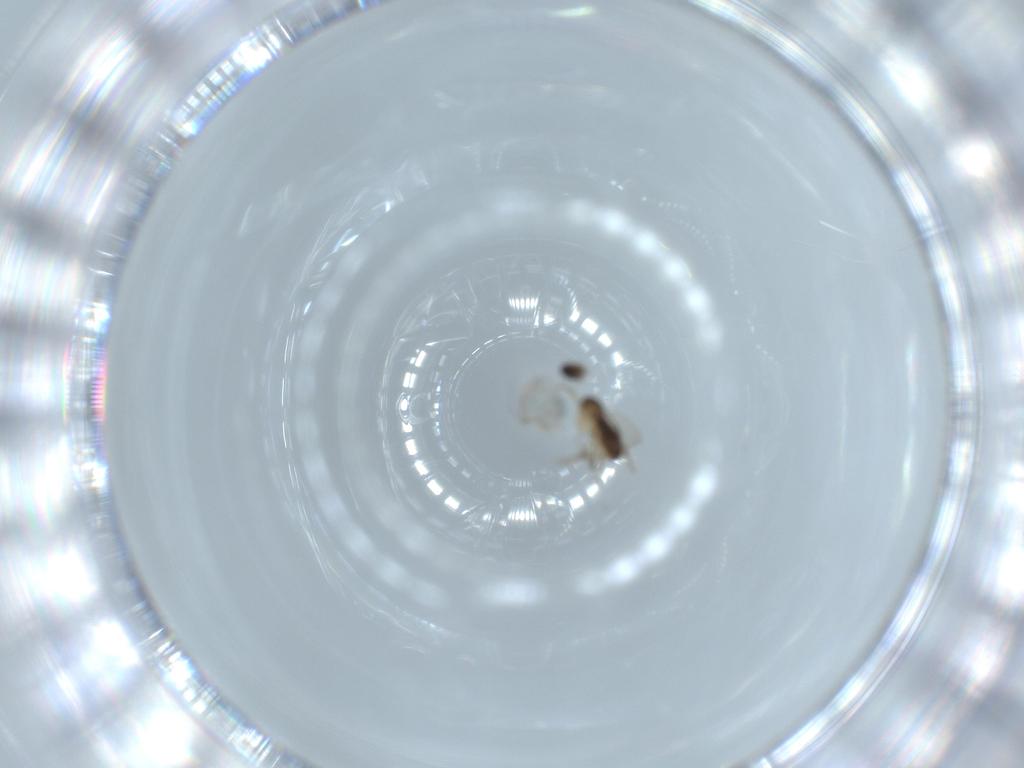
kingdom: Animalia
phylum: Arthropoda
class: Insecta
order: Diptera
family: Phoridae
